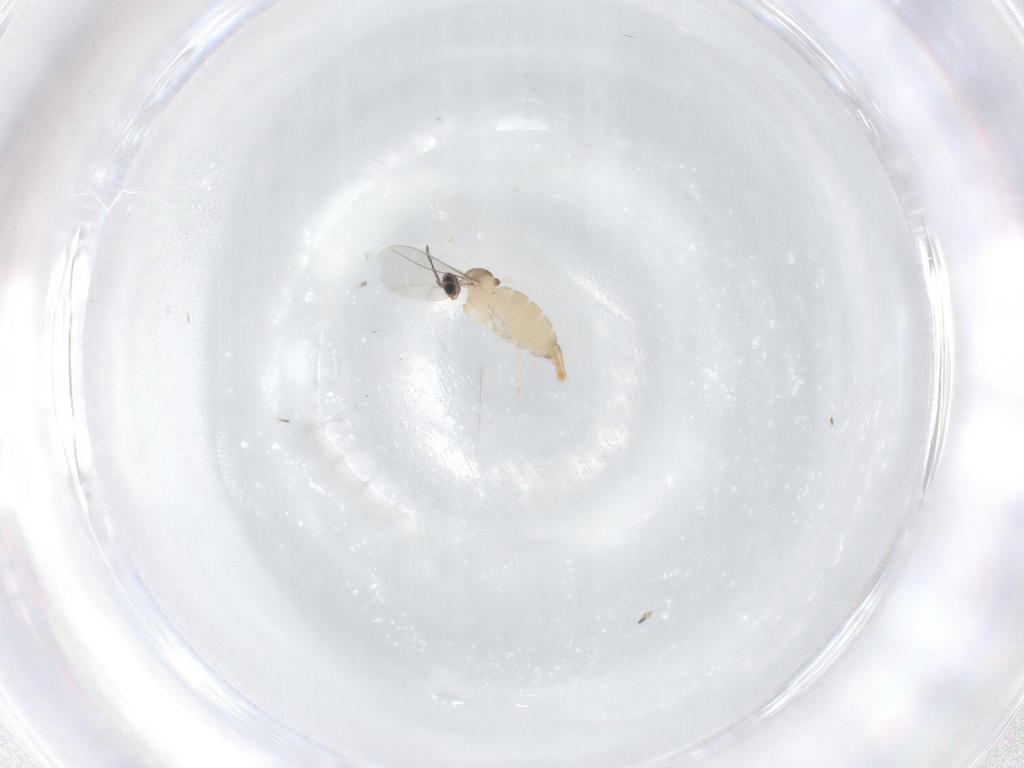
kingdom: Animalia
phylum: Arthropoda
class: Insecta
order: Diptera
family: Cecidomyiidae
